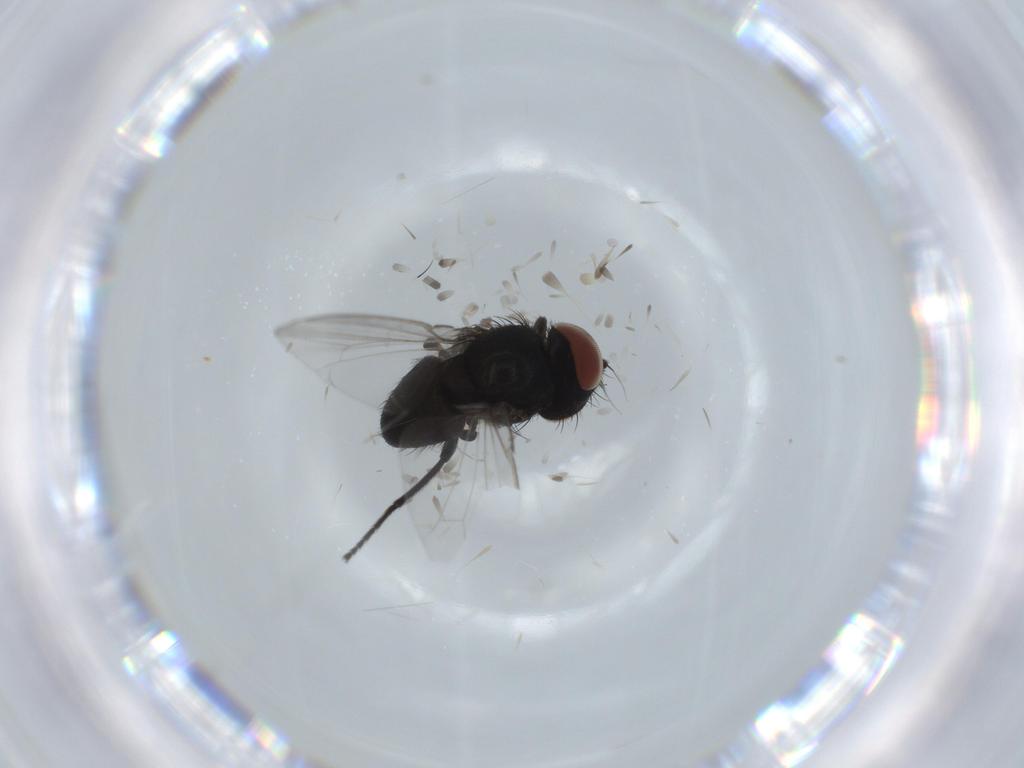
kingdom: Animalia
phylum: Arthropoda
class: Insecta
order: Diptera
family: Milichiidae
